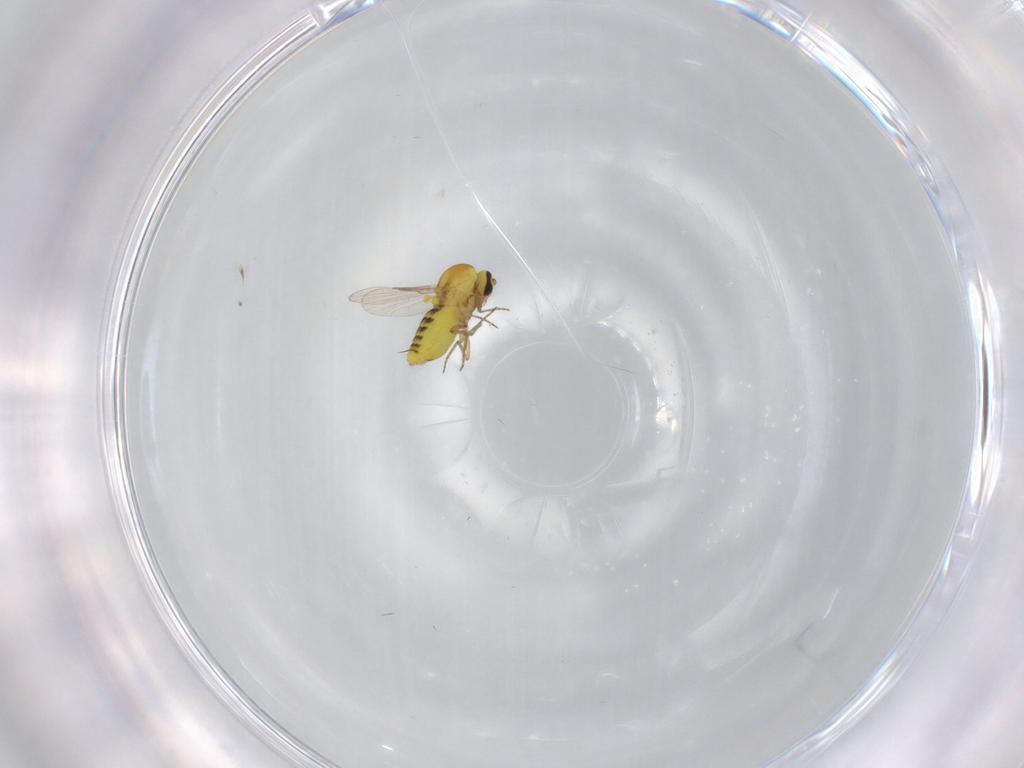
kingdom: Animalia
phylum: Arthropoda
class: Insecta
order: Diptera
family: Ceratopogonidae
